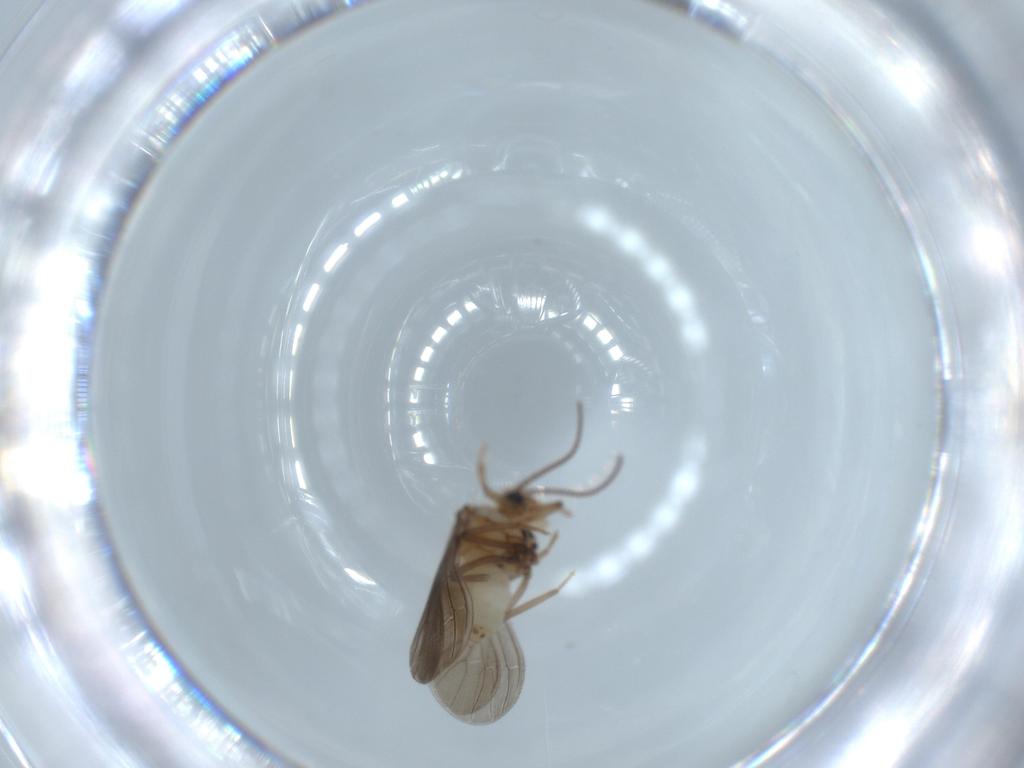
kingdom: Animalia
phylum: Arthropoda
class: Insecta
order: Neuroptera
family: Coniopterygidae
